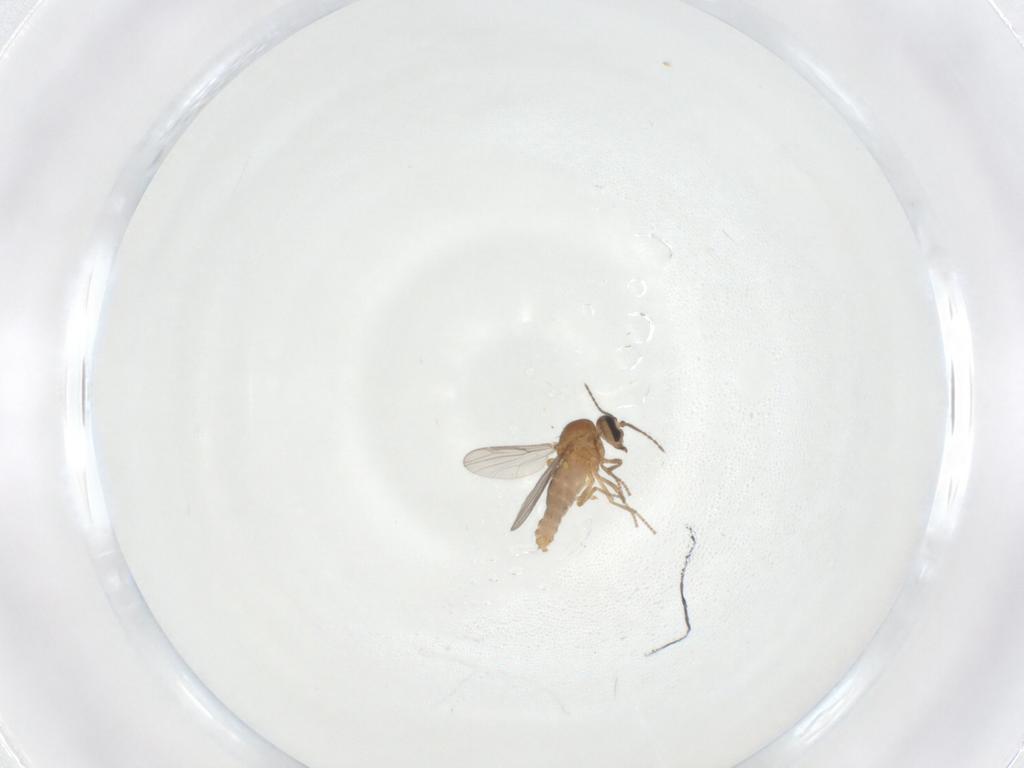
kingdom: Animalia
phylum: Arthropoda
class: Insecta
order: Diptera
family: Ceratopogonidae
